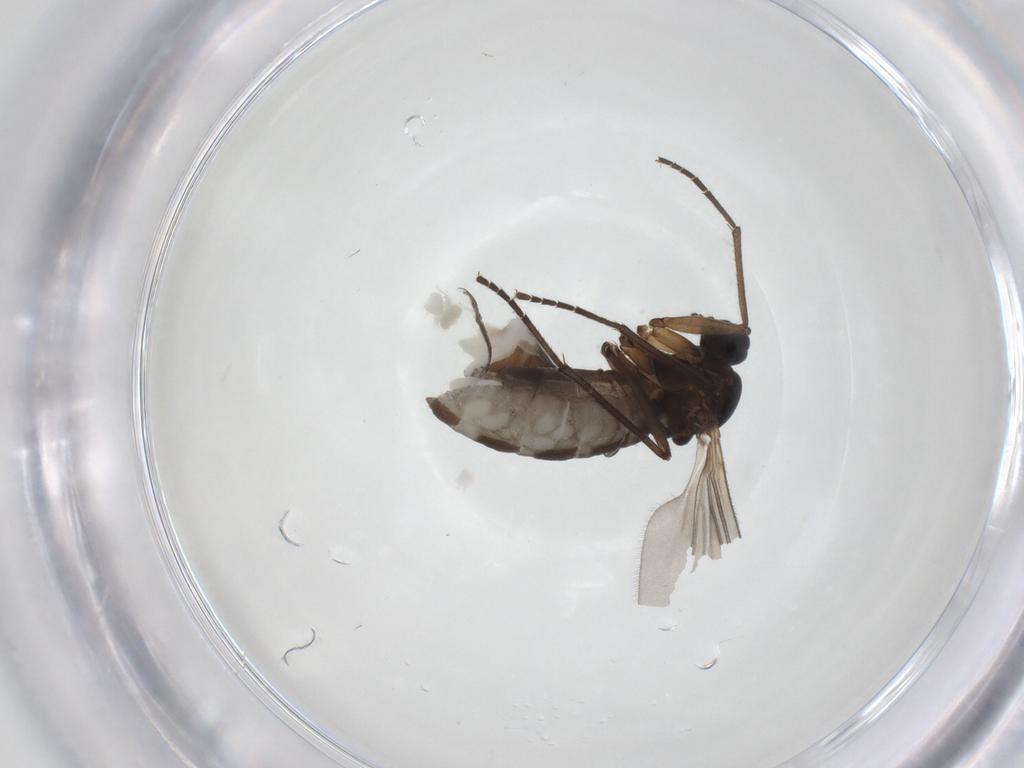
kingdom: Animalia
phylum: Arthropoda
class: Insecta
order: Diptera
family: Sciaridae
